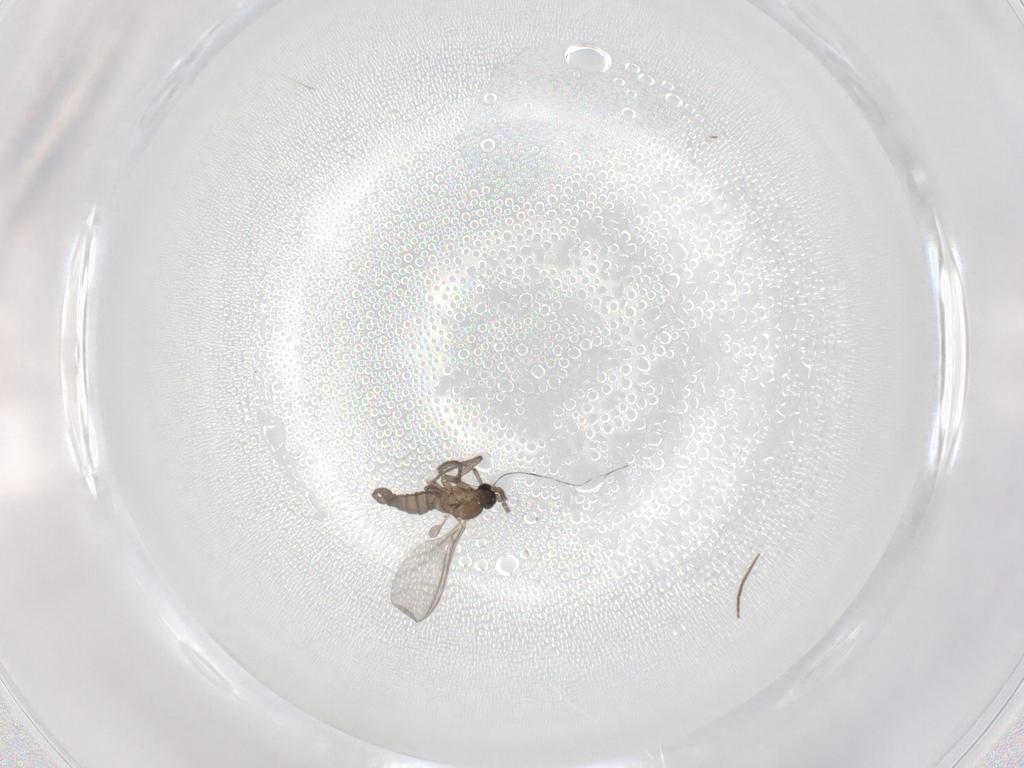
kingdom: Animalia
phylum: Arthropoda
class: Insecta
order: Diptera
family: Sciaridae
